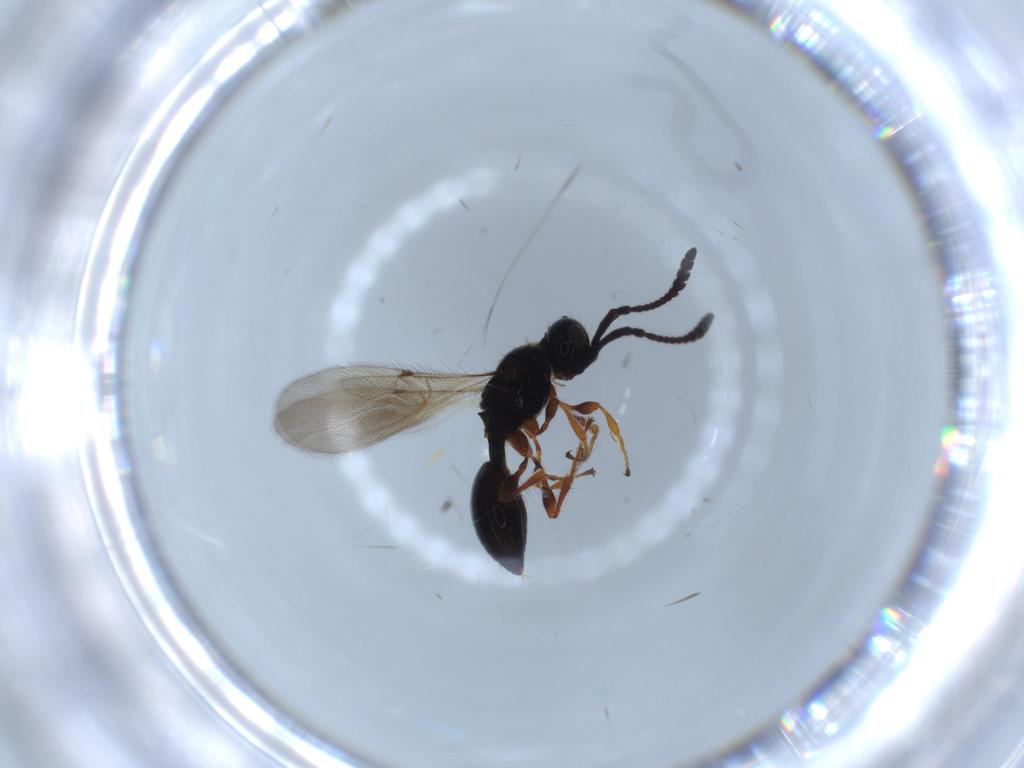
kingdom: Animalia
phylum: Arthropoda
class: Insecta
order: Hymenoptera
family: Diapriidae
